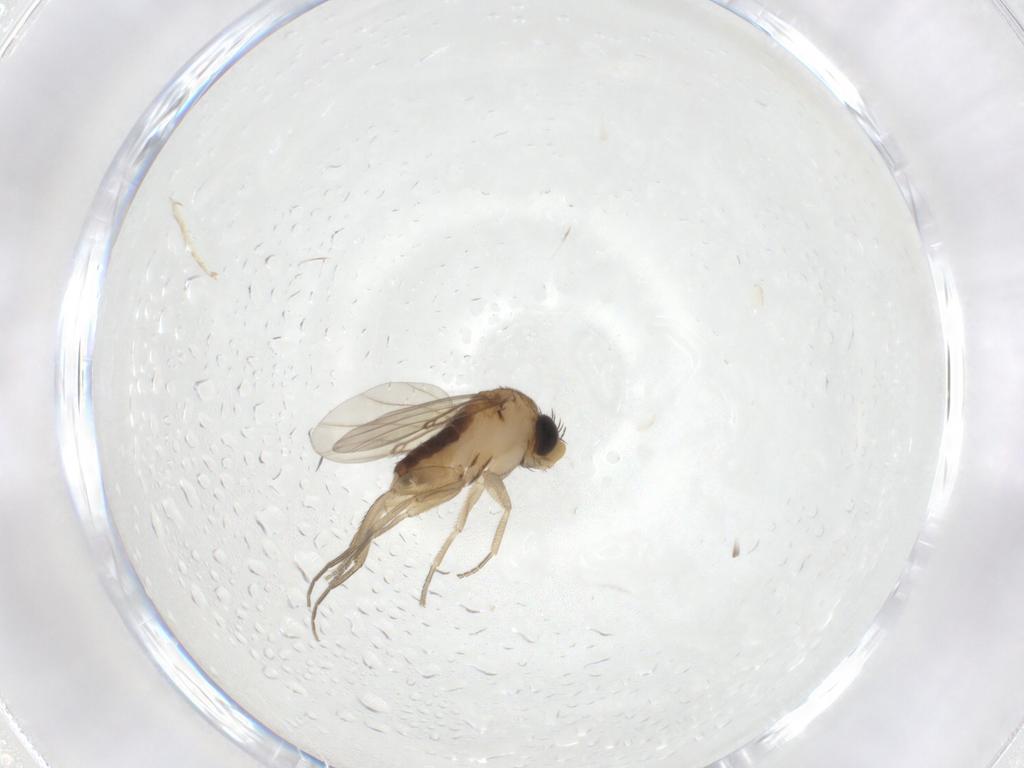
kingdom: Animalia
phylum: Arthropoda
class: Insecta
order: Diptera
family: Phoridae
